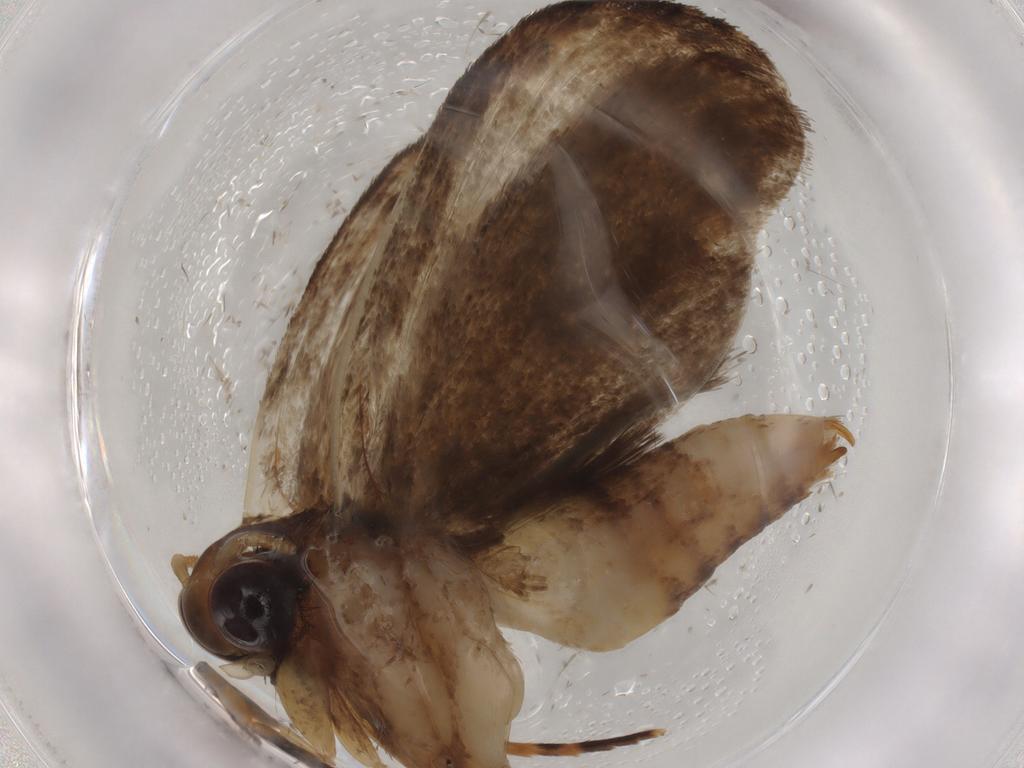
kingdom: Animalia
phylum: Arthropoda
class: Insecta
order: Lepidoptera
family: Tineidae
